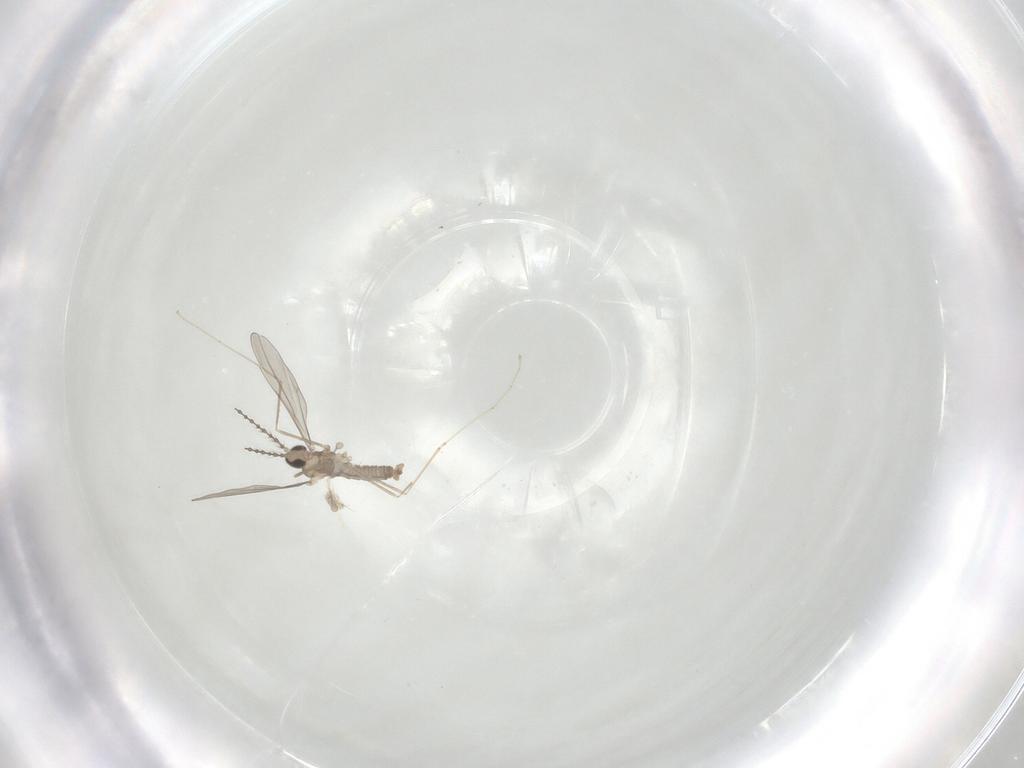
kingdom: Animalia
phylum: Arthropoda
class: Insecta
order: Diptera
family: Cecidomyiidae
